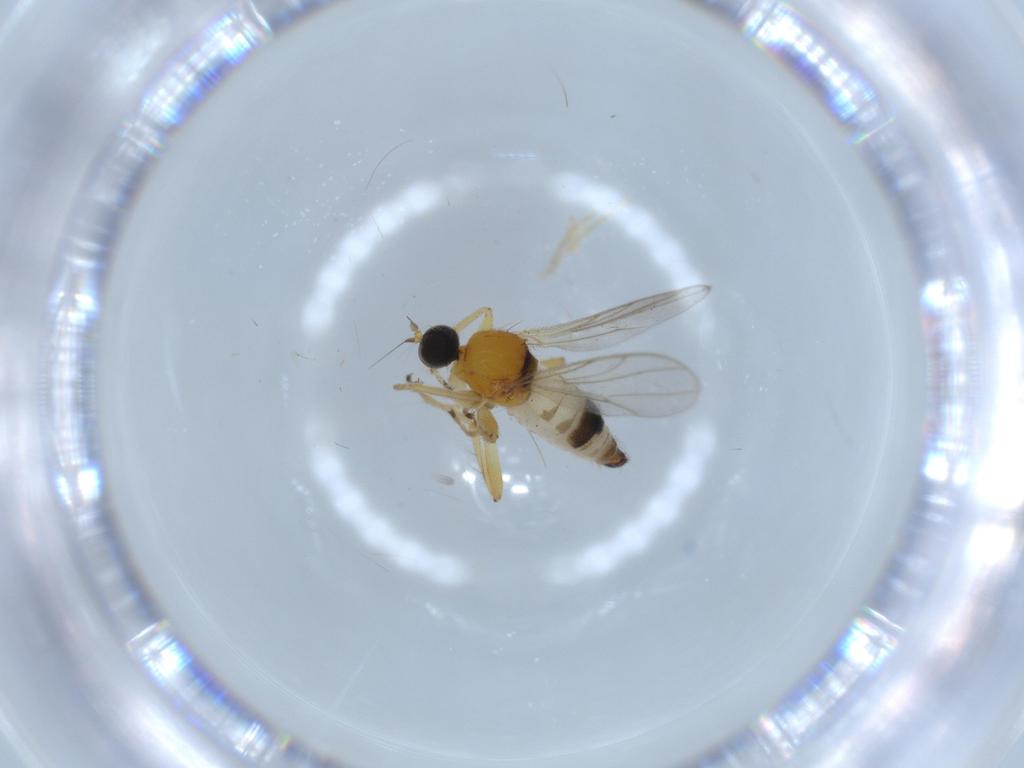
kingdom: Animalia
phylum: Arthropoda
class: Insecta
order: Diptera
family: Hybotidae
